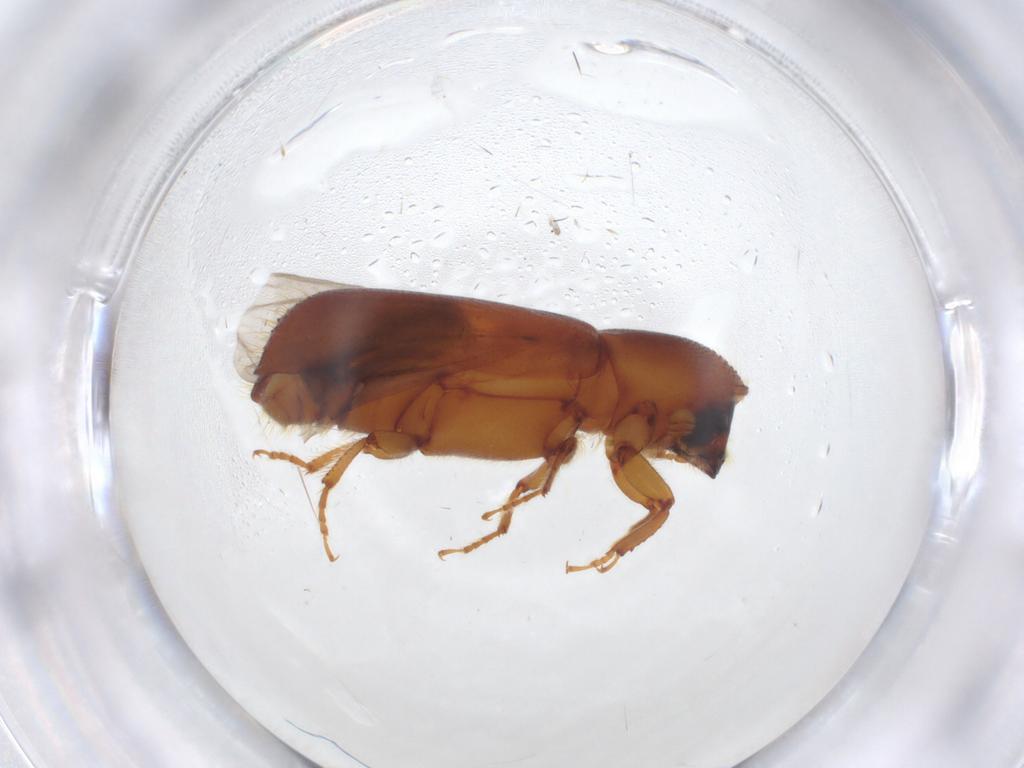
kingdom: Animalia
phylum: Arthropoda
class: Insecta
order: Coleoptera
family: Curculionidae
